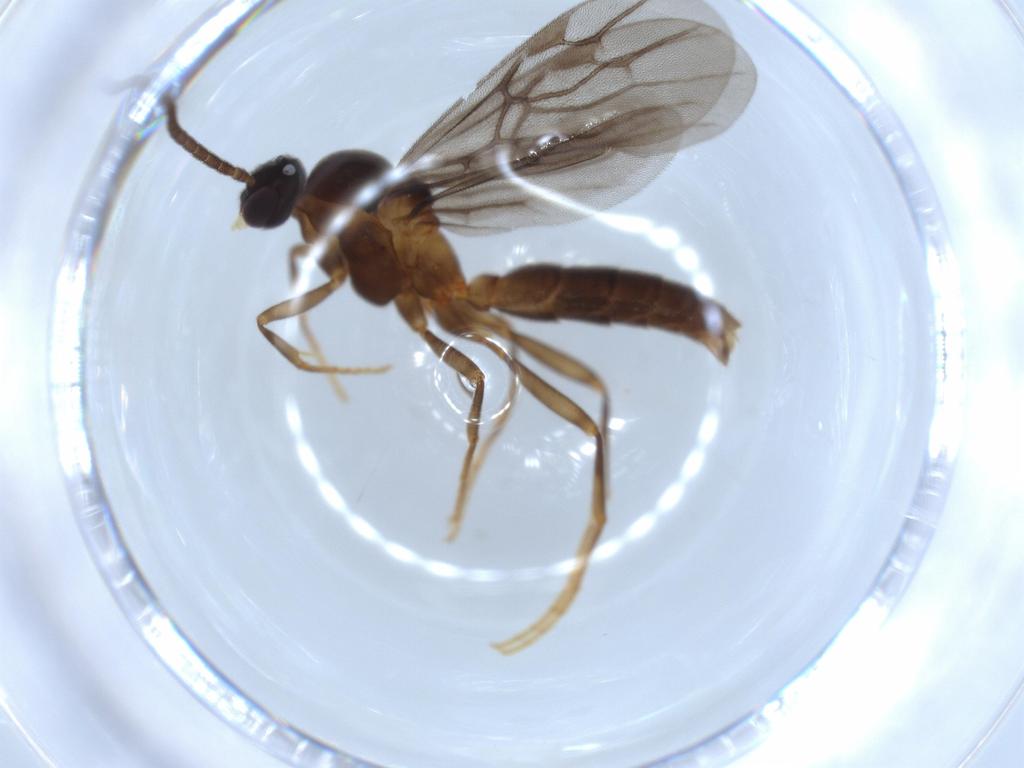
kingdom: Animalia
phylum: Arthropoda
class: Insecta
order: Hymenoptera
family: Formicidae
